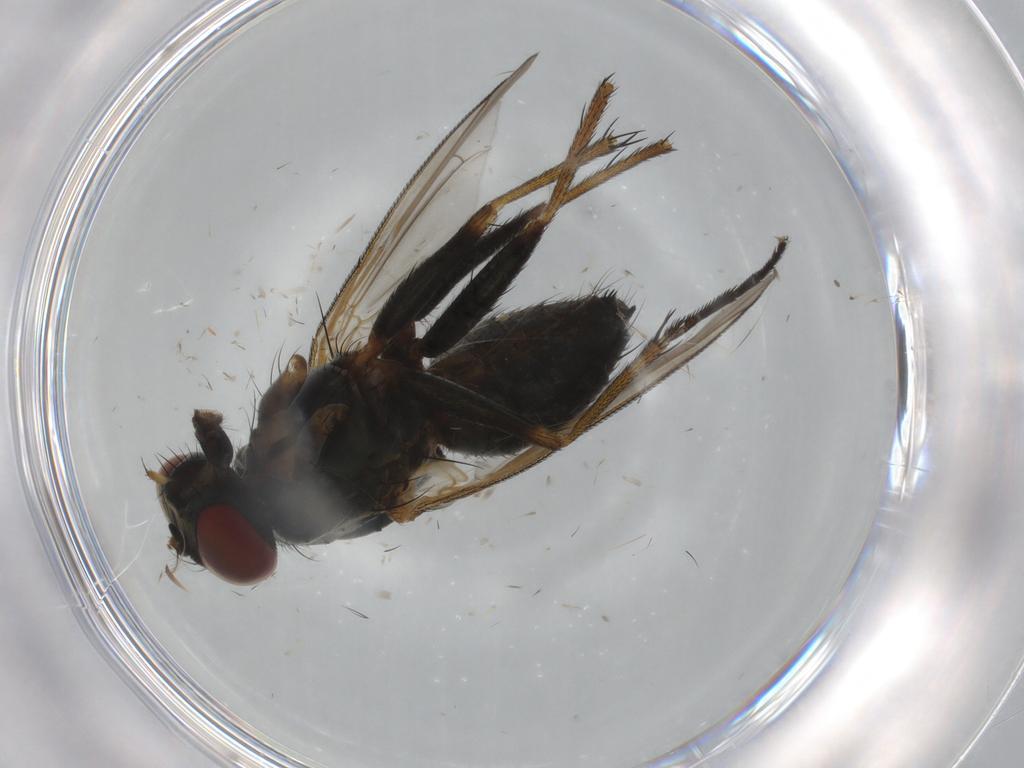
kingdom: Animalia
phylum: Arthropoda
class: Insecta
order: Diptera
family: Muscidae
